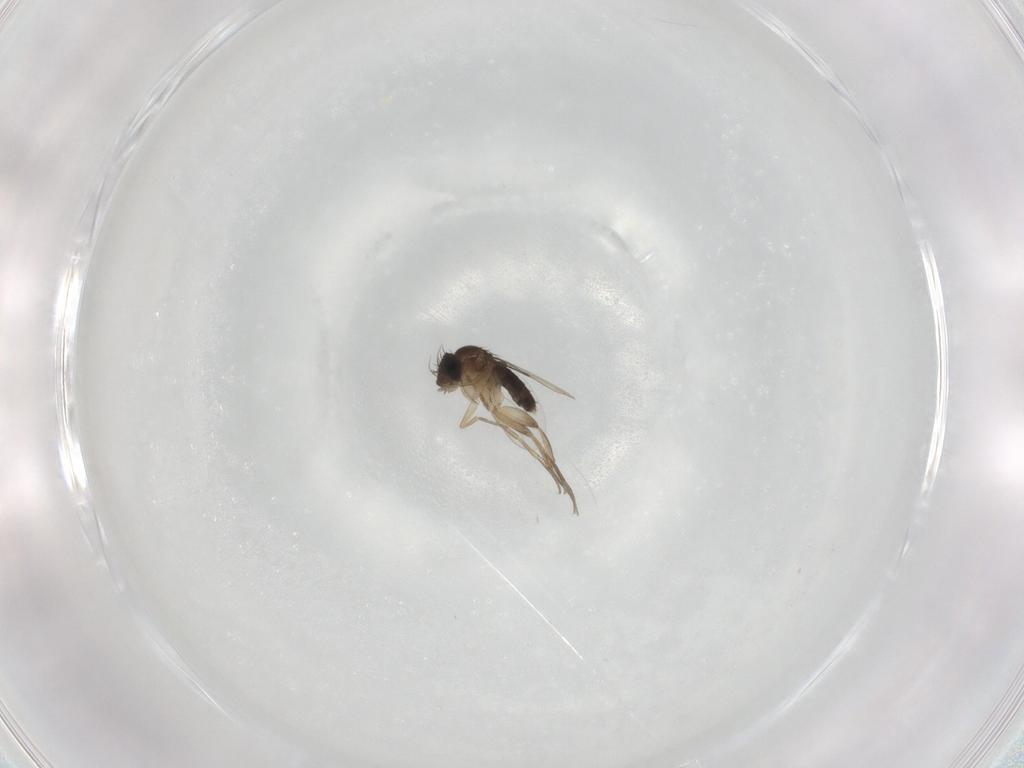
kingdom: Animalia
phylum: Arthropoda
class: Insecta
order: Diptera
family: Chironomidae
